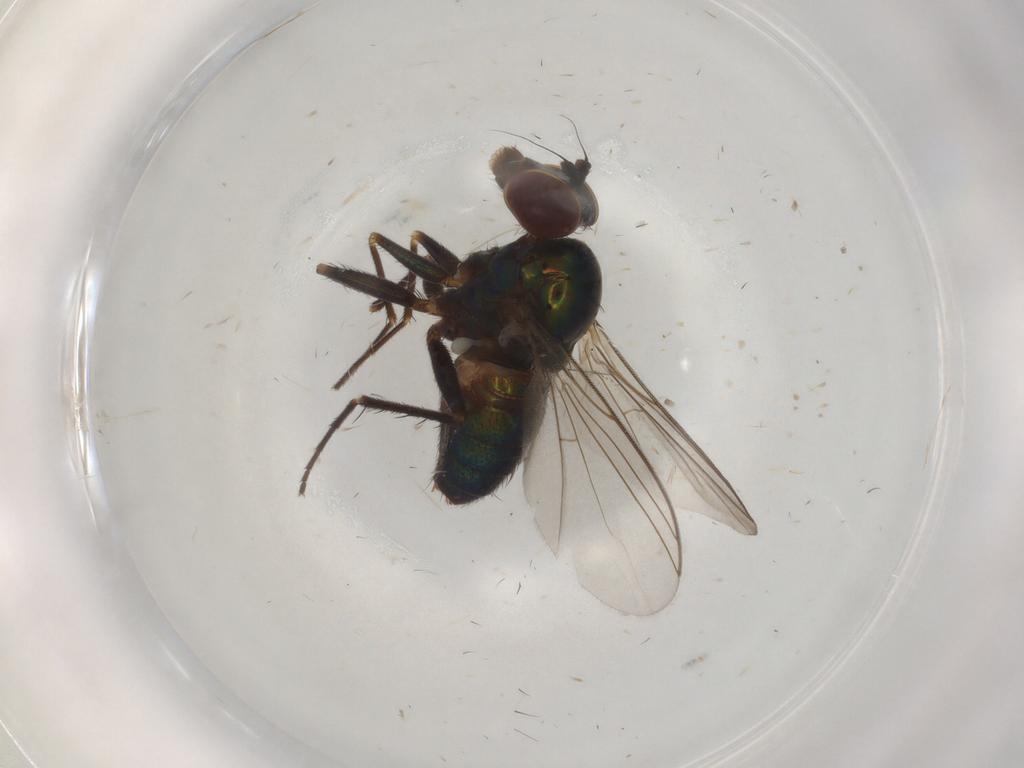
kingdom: Animalia
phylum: Arthropoda
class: Insecta
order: Diptera
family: Dolichopodidae
